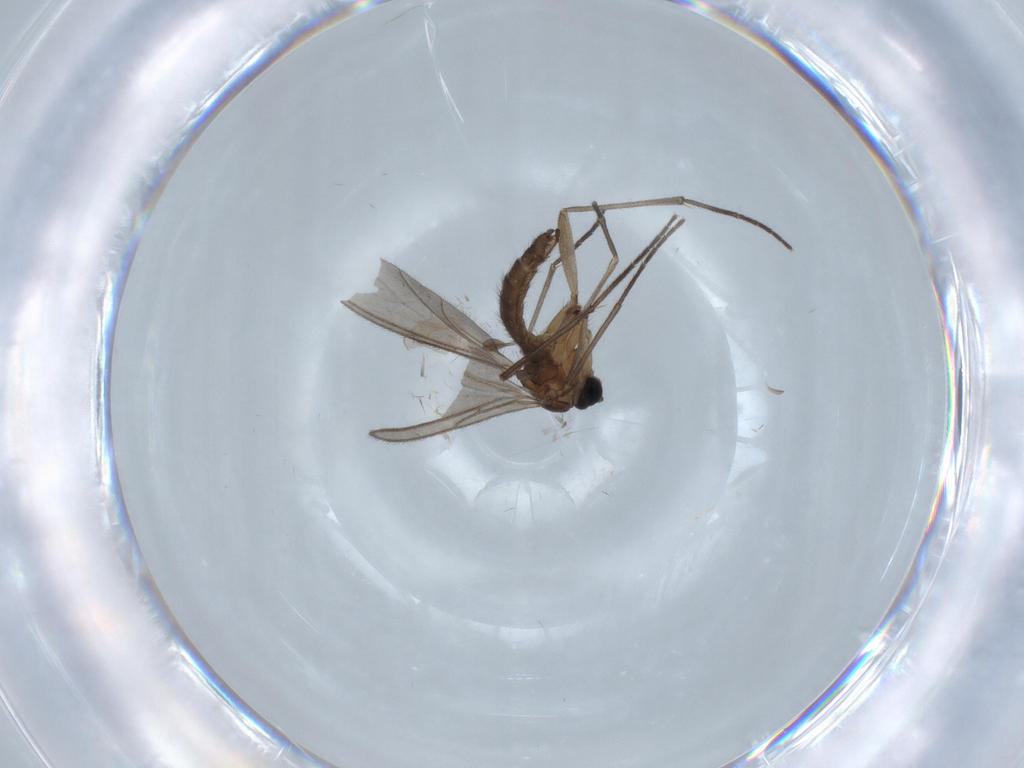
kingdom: Animalia
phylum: Arthropoda
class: Insecta
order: Diptera
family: Sciaridae
